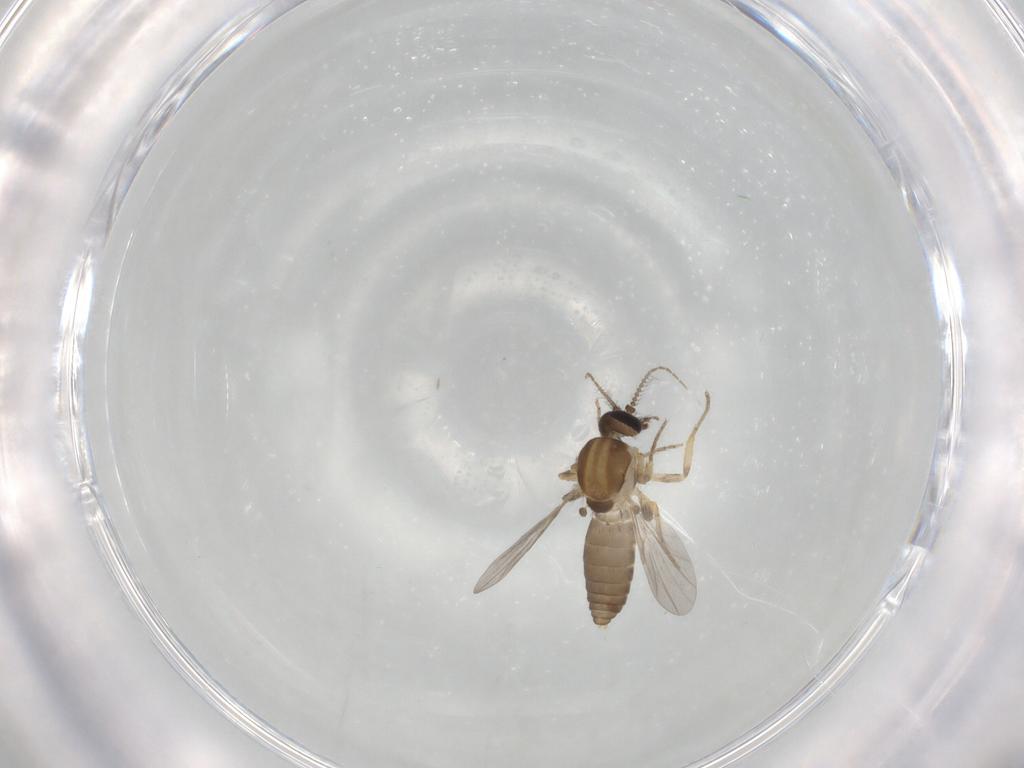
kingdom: Animalia
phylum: Arthropoda
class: Insecta
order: Diptera
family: Ceratopogonidae
